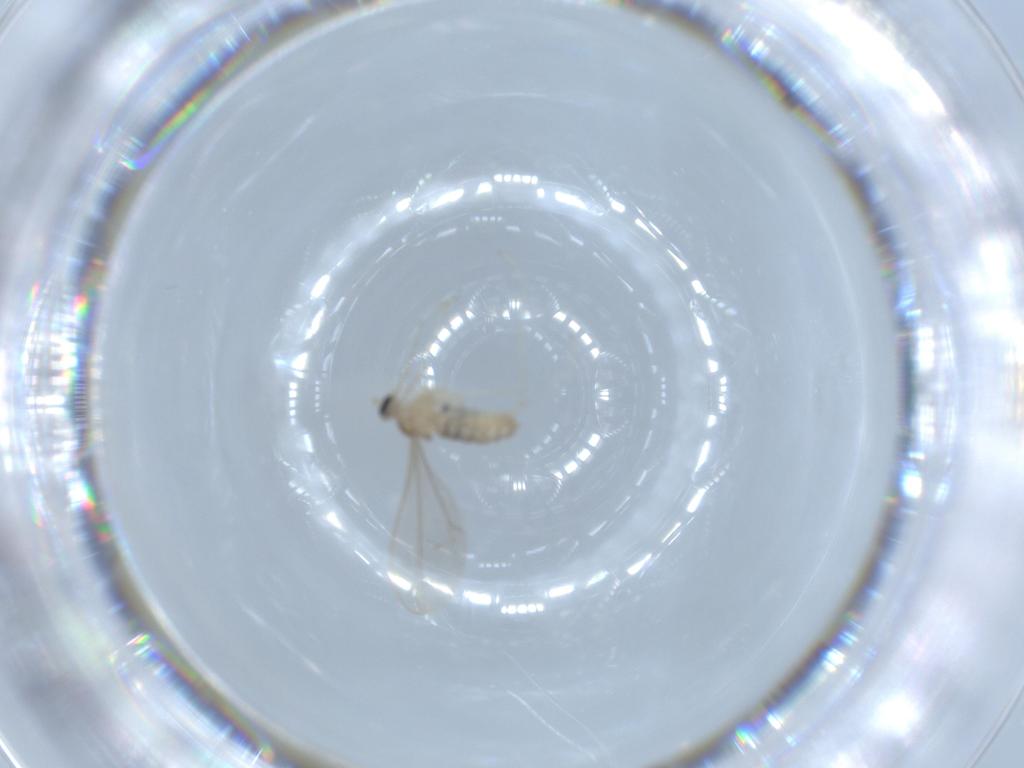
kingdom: Animalia
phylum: Arthropoda
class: Insecta
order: Diptera
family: Cecidomyiidae
